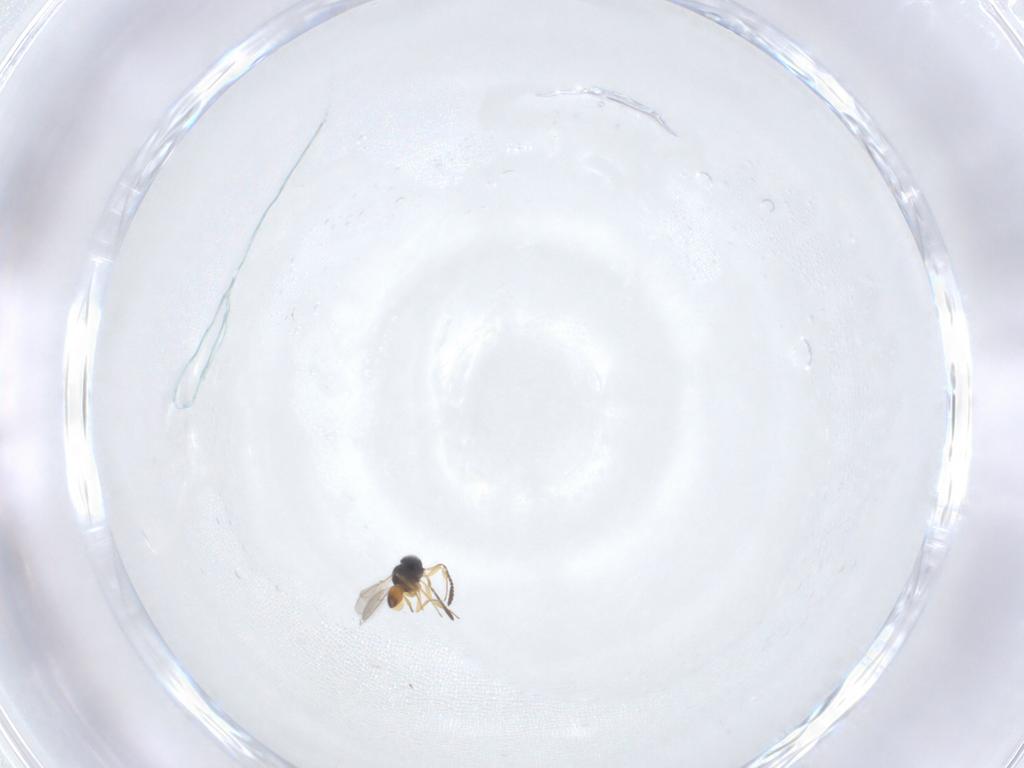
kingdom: Animalia
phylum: Arthropoda
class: Insecta
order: Hymenoptera
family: Scelionidae
